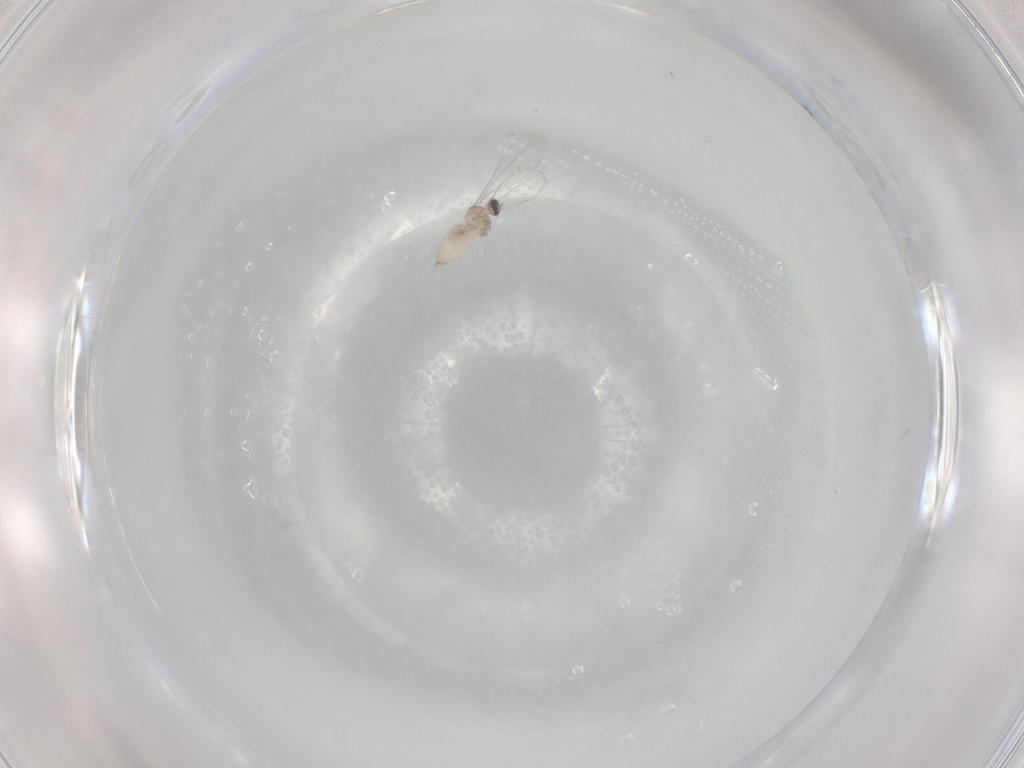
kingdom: Animalia
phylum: Arthropoda
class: Insecta
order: Diptera
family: Cecidomyiidae
